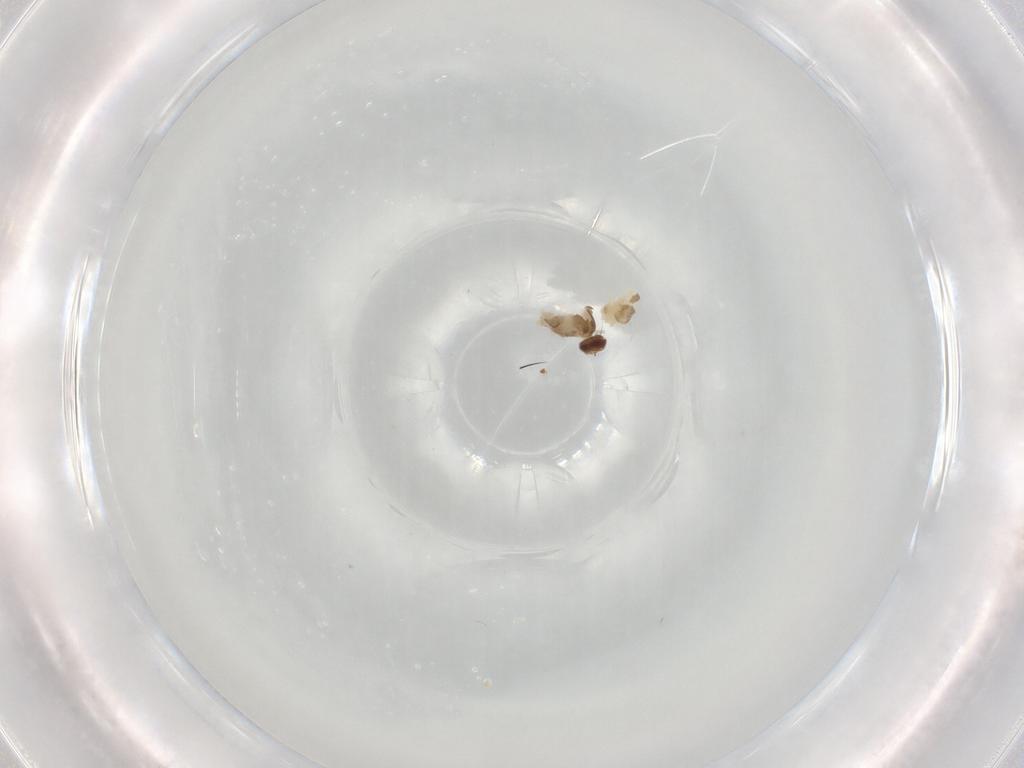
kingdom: Animalia
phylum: Arthropoda
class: Insecta
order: Diptera
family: Cecidomyiidae
